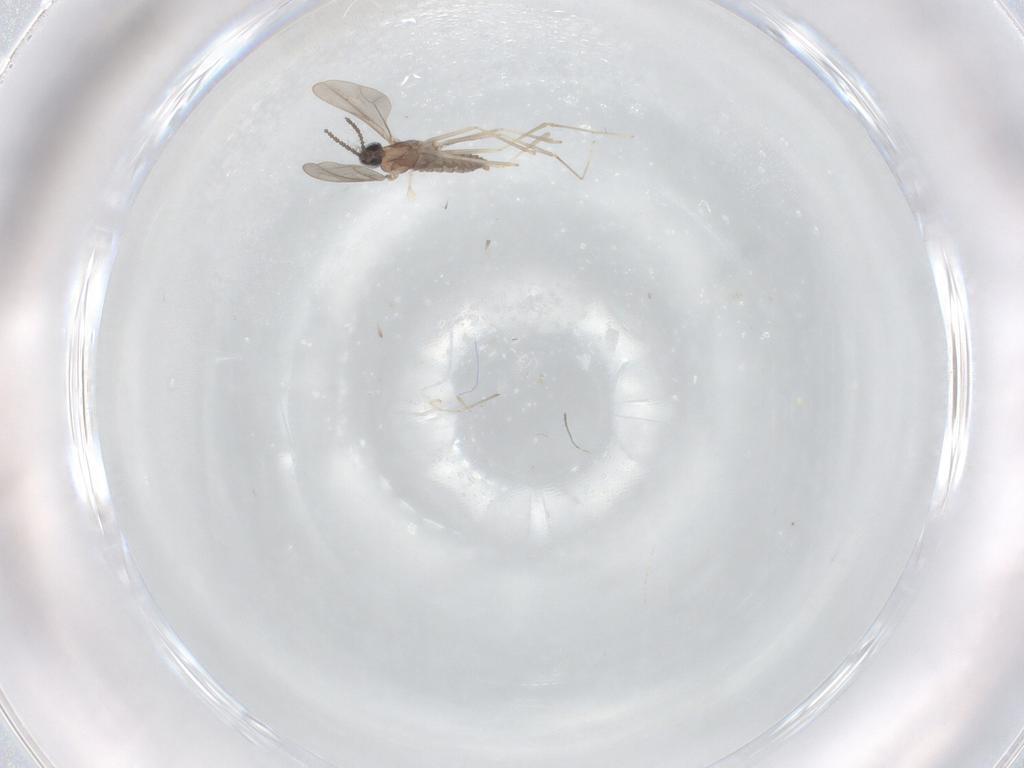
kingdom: Animalia
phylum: Arthropoda
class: Insecta
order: Diptera
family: Cecidomyiidae
